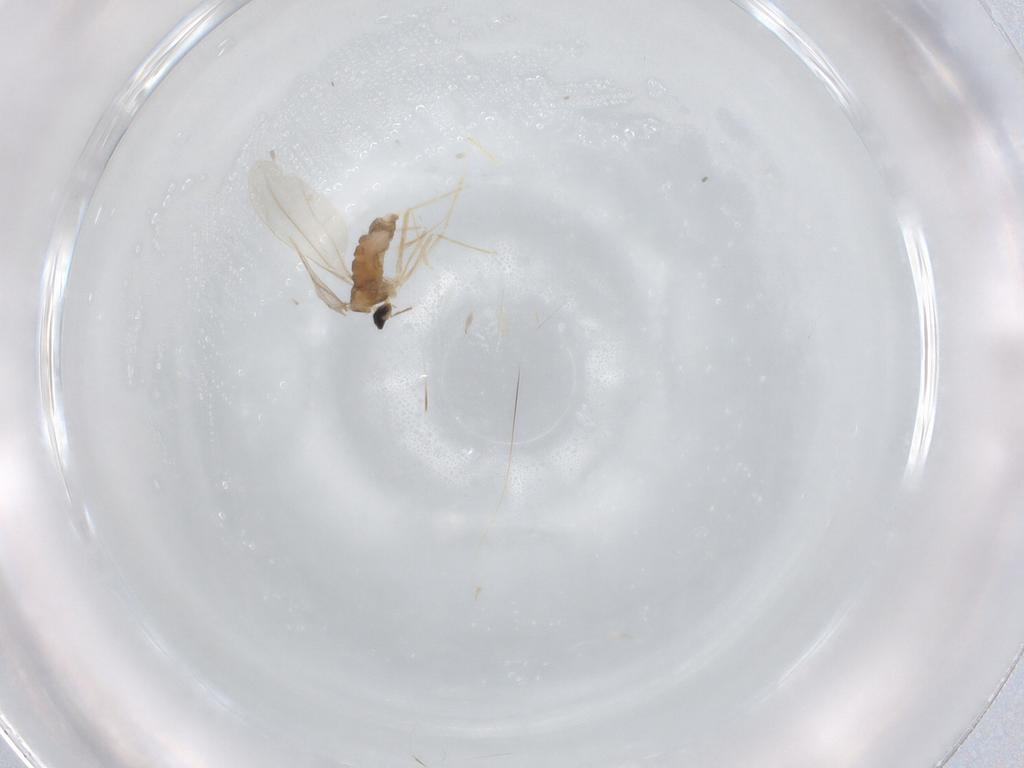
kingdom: Animalia
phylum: Arthropoda
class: Insecta
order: Diptera
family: Cecidomyiidae
